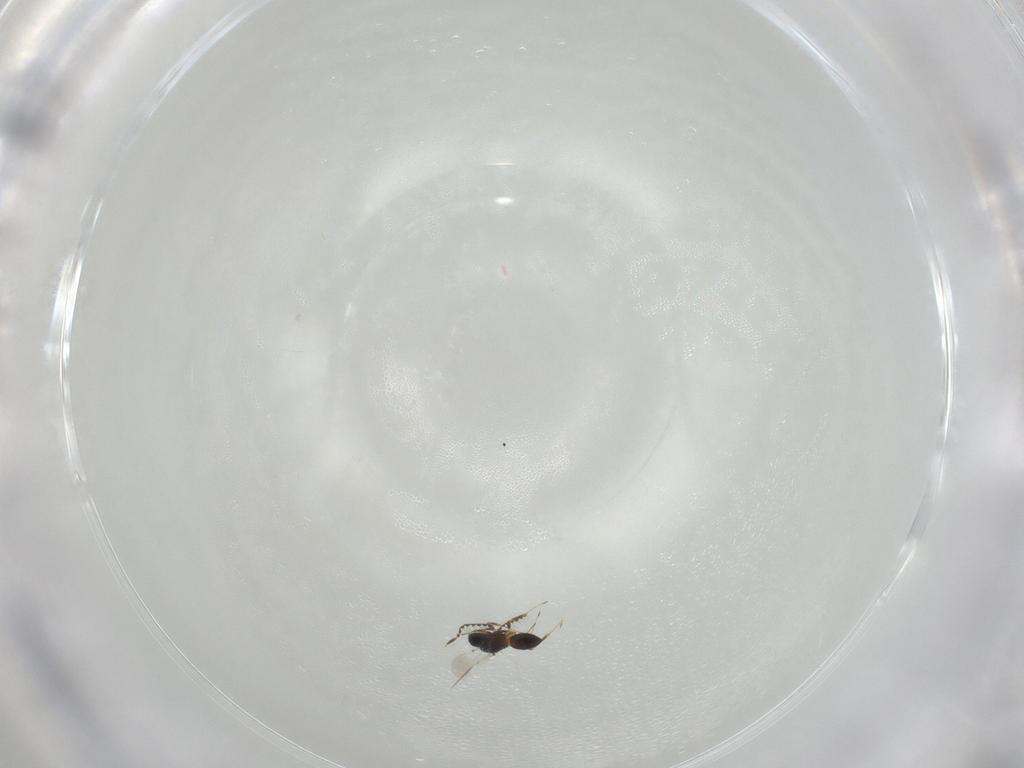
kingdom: Animalia
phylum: Arthropoda
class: Insecta
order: Hymenoptera
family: Platygastridae
